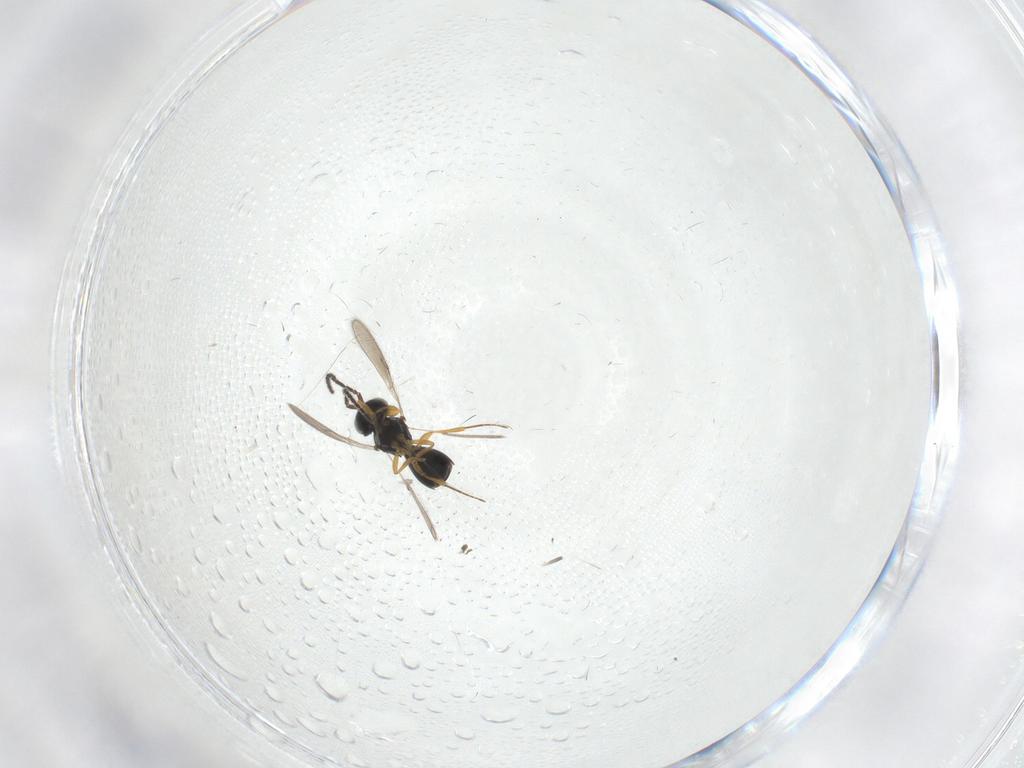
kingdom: Animalia
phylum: Arthropoda
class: Insecta
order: Hymenoptera
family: Scelionidae
